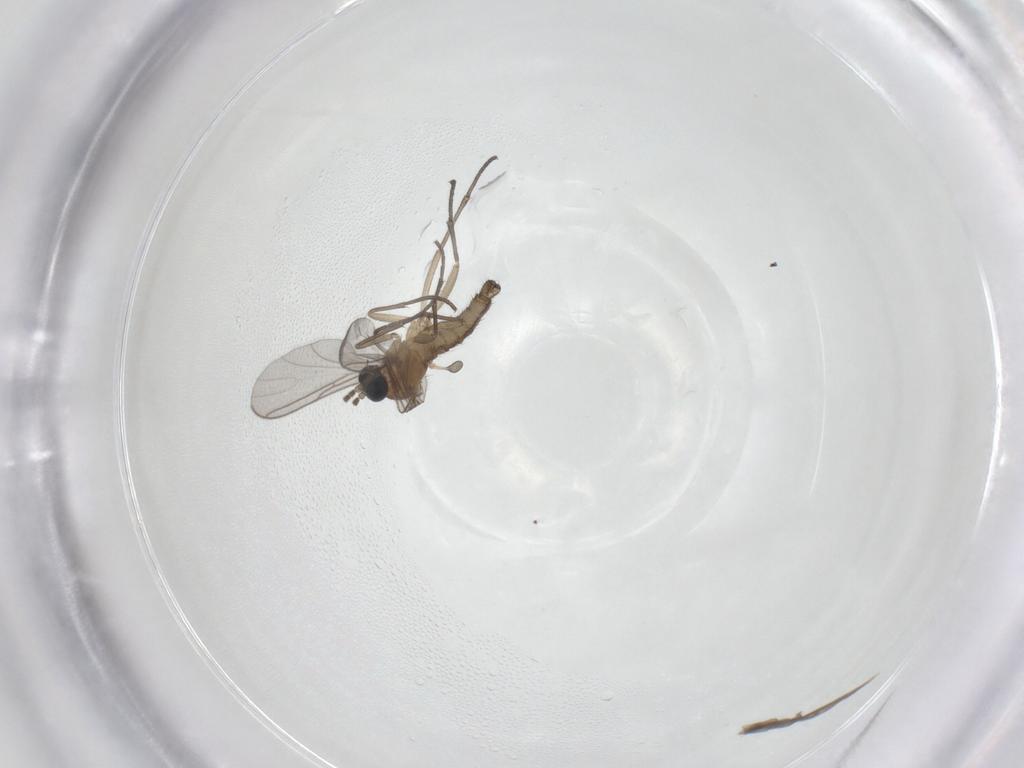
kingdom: Animalia
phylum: Arthropoda
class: Insecta
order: Diptera
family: Sciaridae
